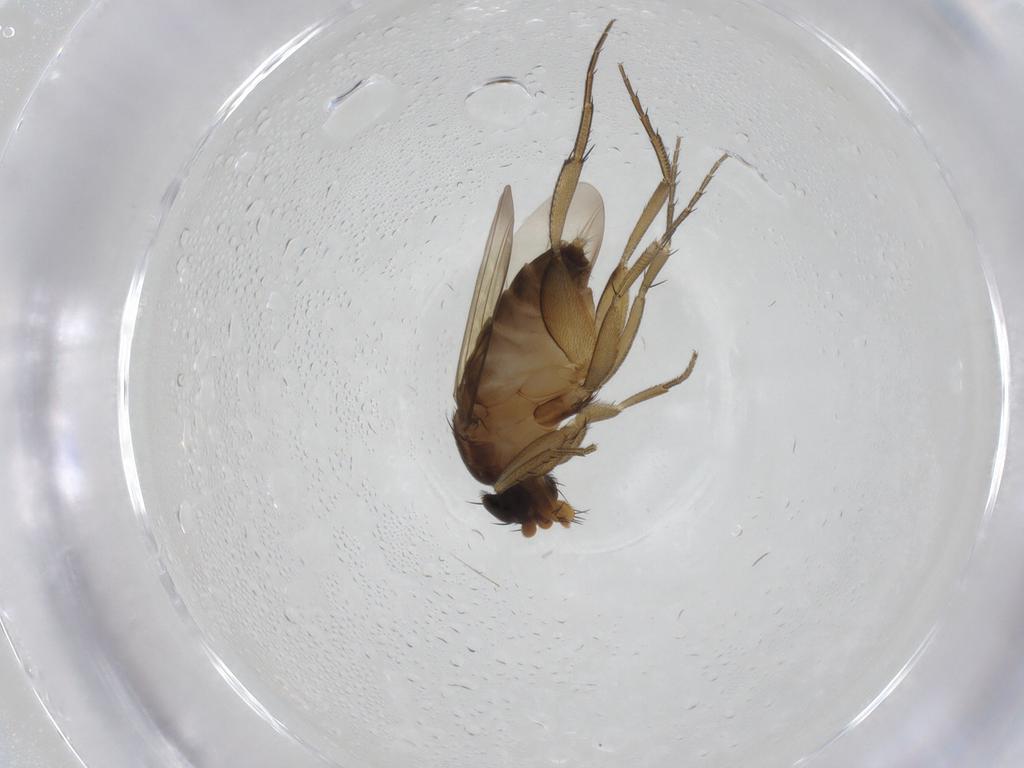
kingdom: Animalia
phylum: Arthropoda
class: Insecta
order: Diptera
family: Phoridae
